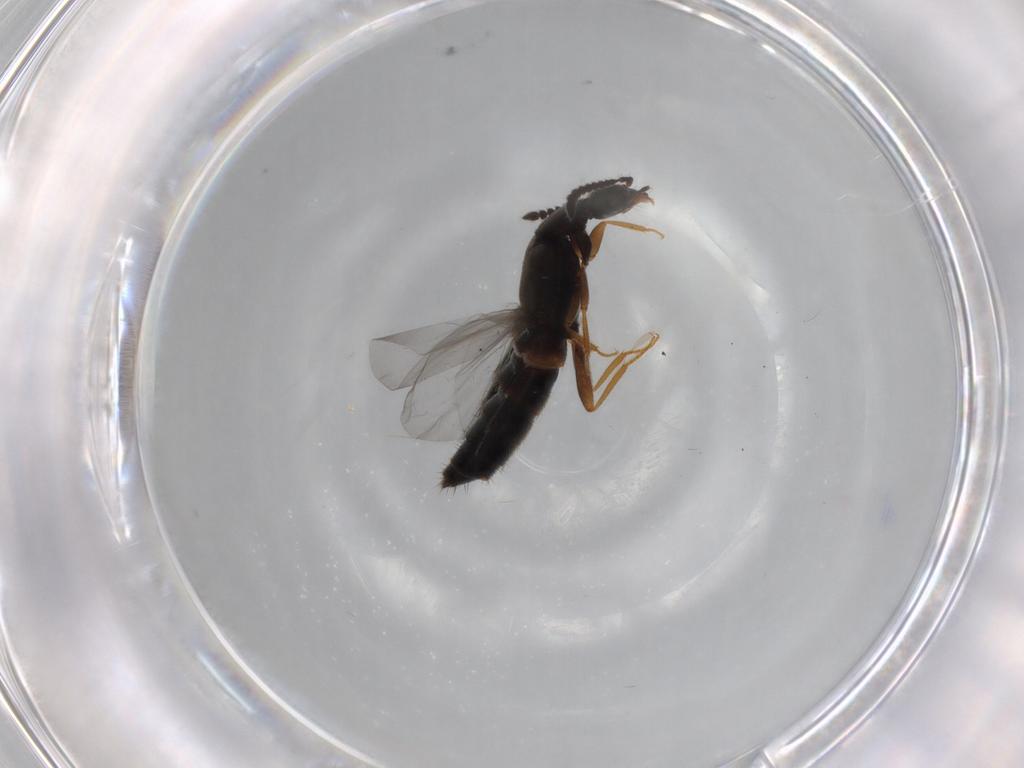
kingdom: Animalia
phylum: Arthropoda
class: Insecta
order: Coleoptera
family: Staphylinidae
